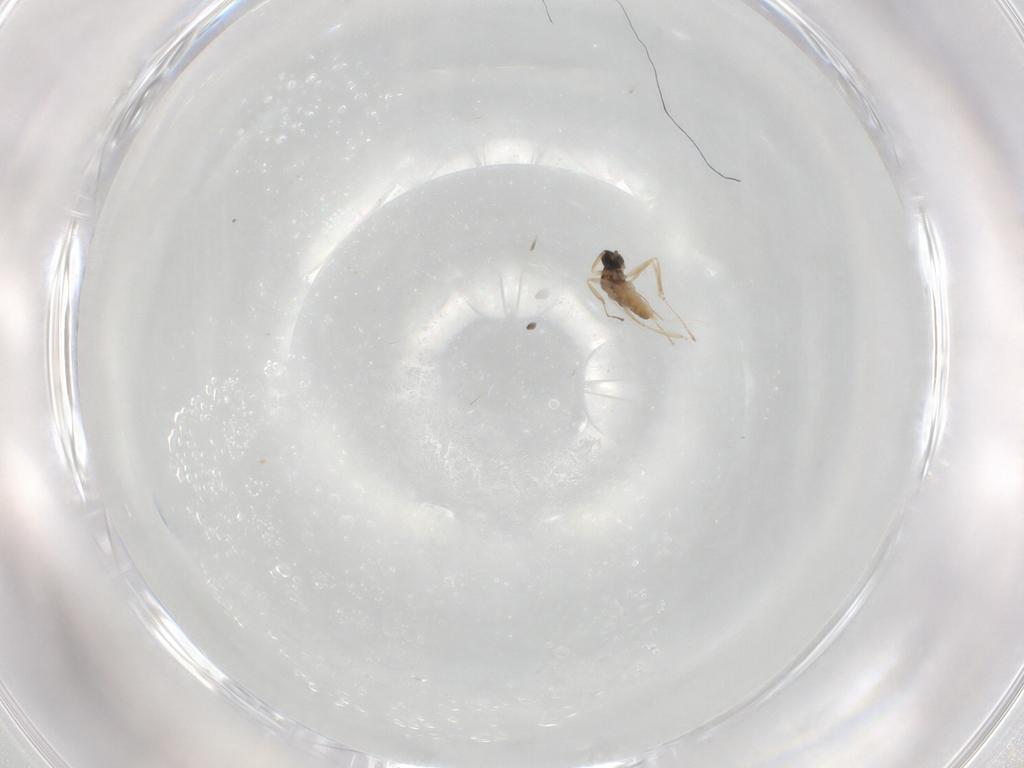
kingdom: Animalia
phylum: Arthropoda
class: Insecta
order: Diptera
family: Cecidomyiidae
